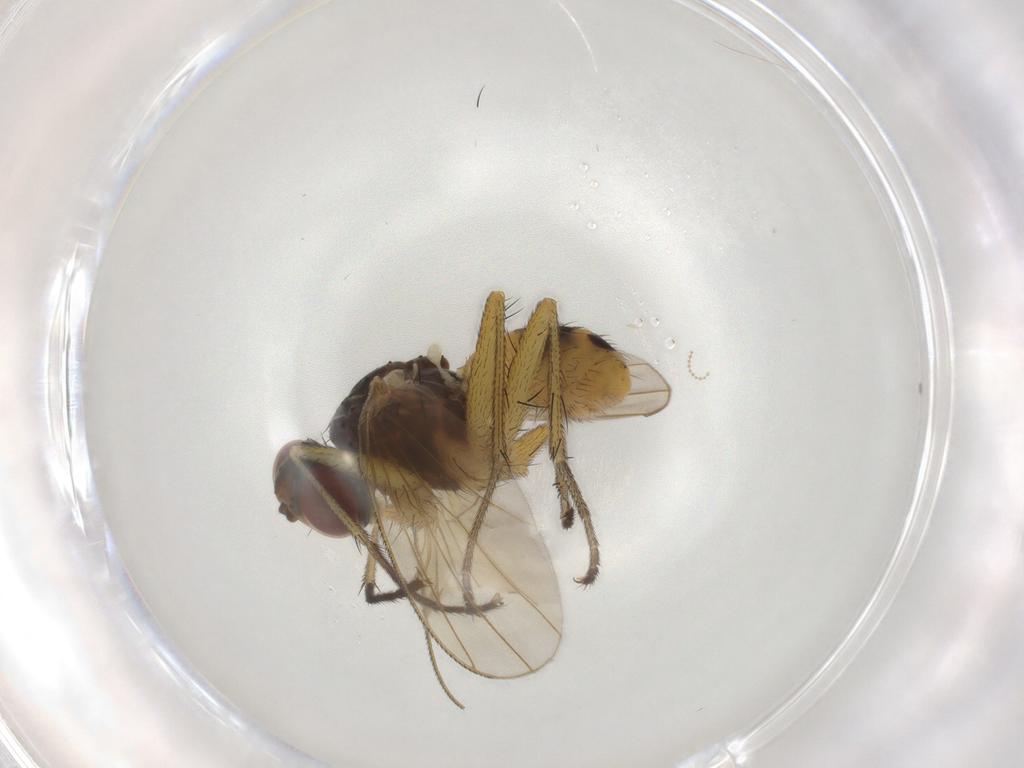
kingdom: Animalia
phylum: Arthropoda
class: Insecta
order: Diptera
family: Muscidae
